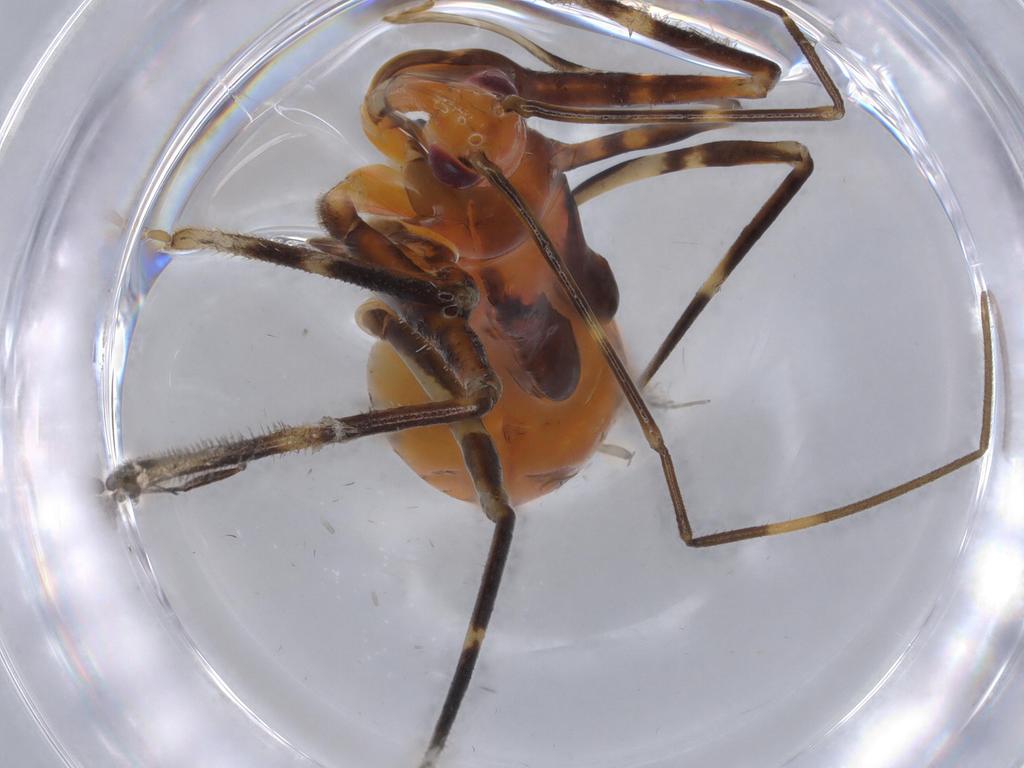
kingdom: Animalia
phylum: Arthropoda
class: Insecta
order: Hemiptera
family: Reduviidae
